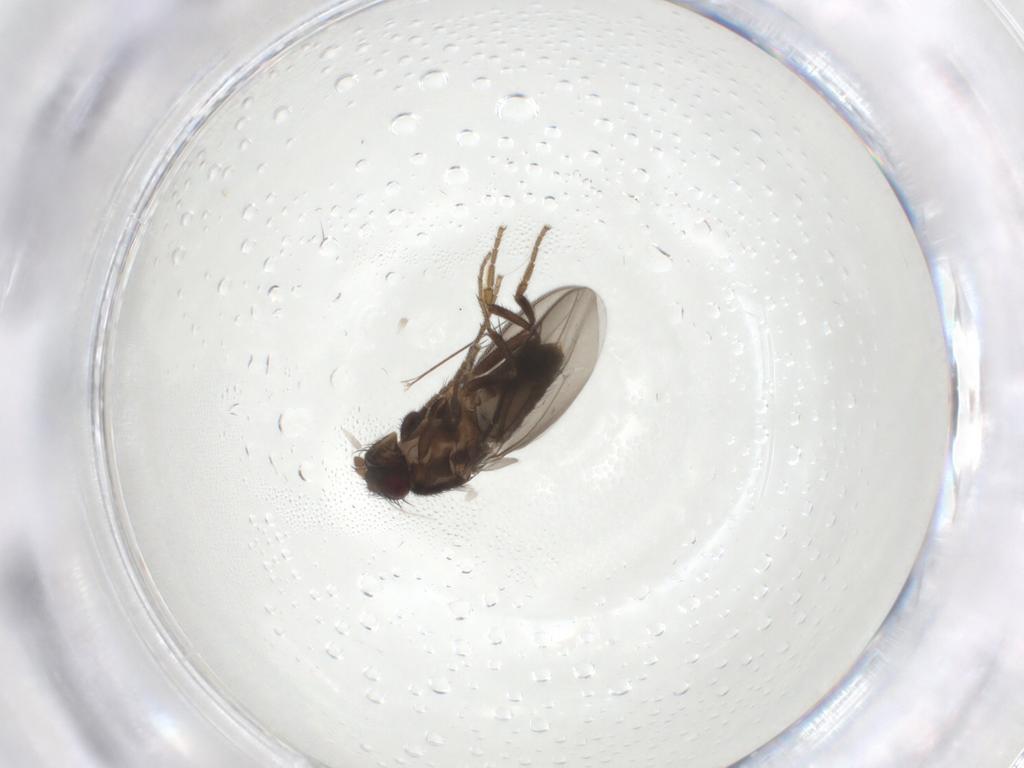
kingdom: Animalia
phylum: Arthropoda
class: Insecta
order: Diptera
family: Sphaeroceridae
